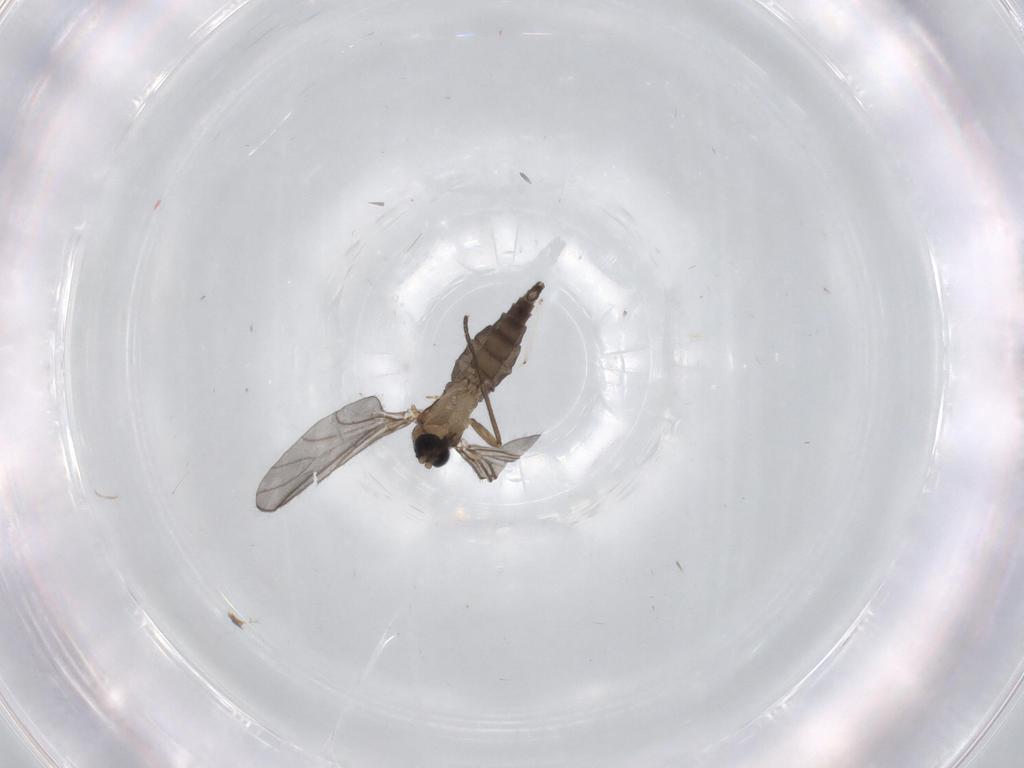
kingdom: Animalia
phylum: Arthropoda
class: Insecta
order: Diptera
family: Sciaridae
